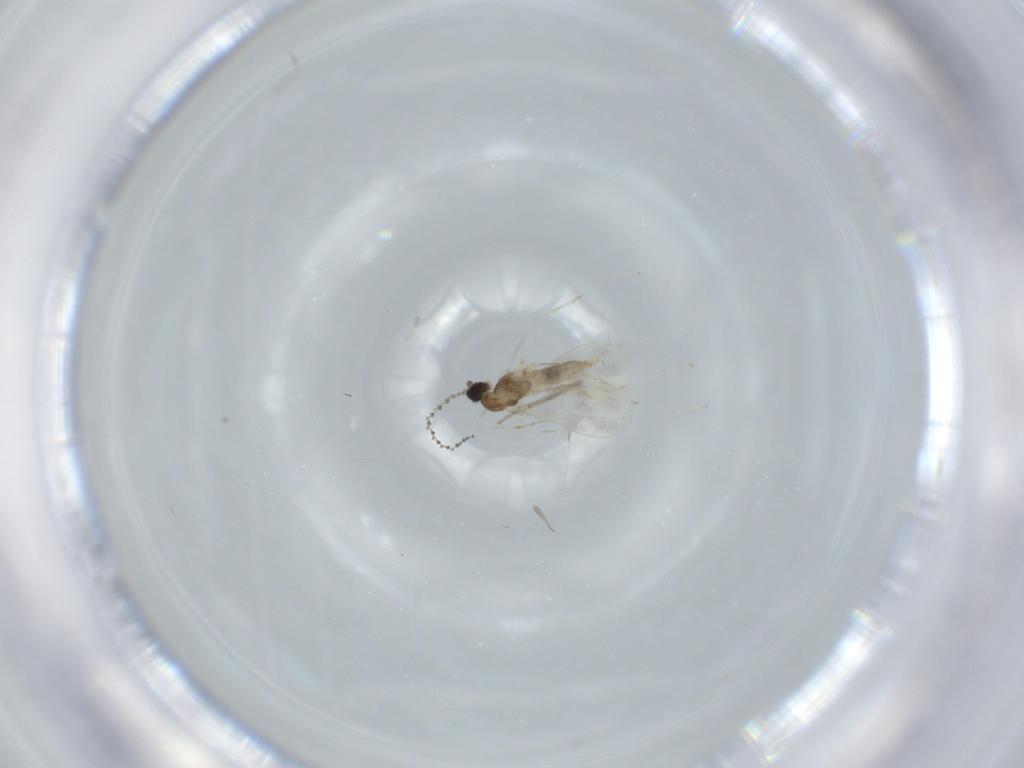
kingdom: Animalia
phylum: Arthropoda
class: Insecta
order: Diptera
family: Cecidomyiidae
